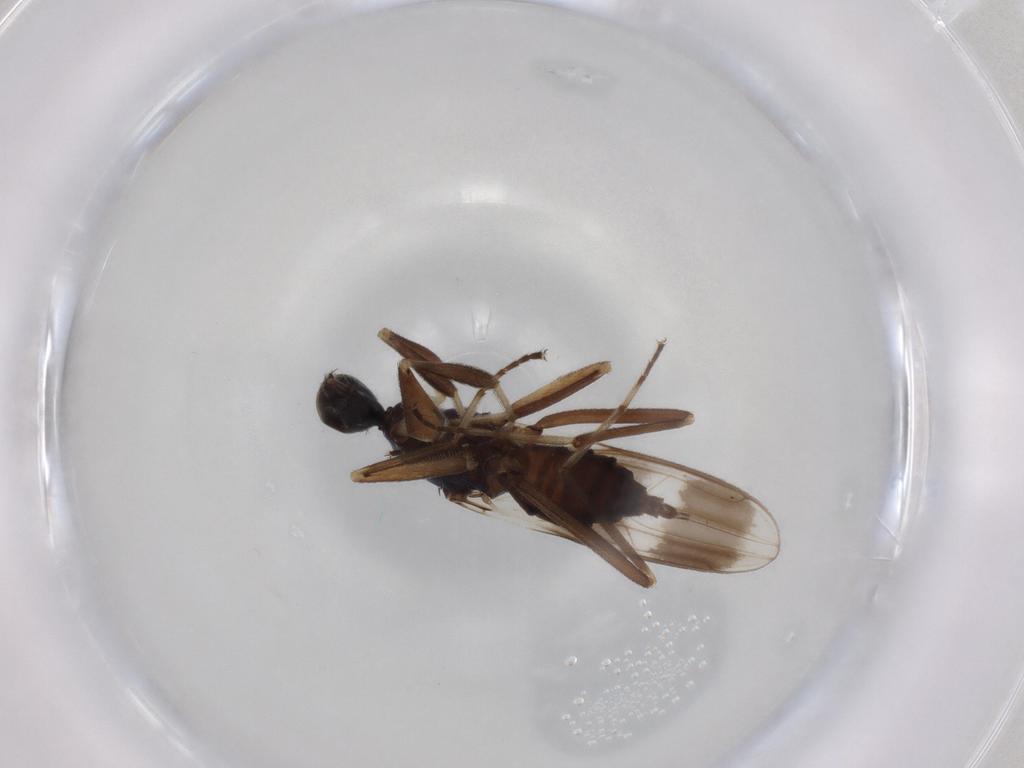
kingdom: Animalia
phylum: Arthropoda
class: Insecta
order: Diptera
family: Hybotidae
